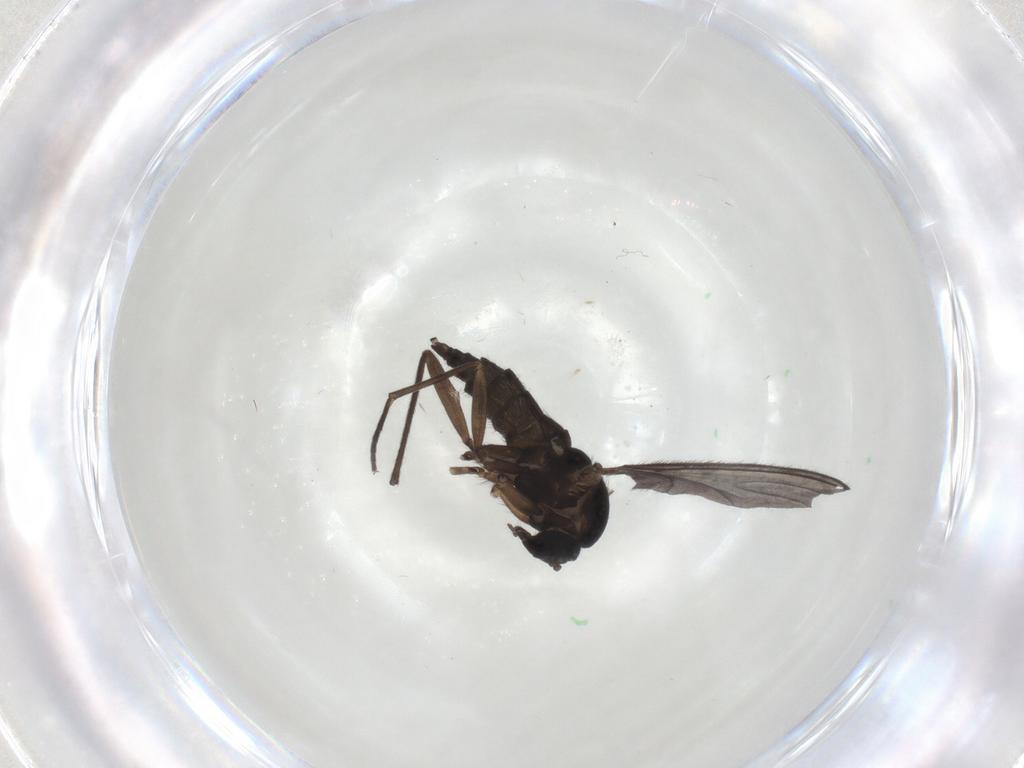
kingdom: Animalia
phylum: Arthropoda
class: Insecta
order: Diptera
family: Sciaridae
